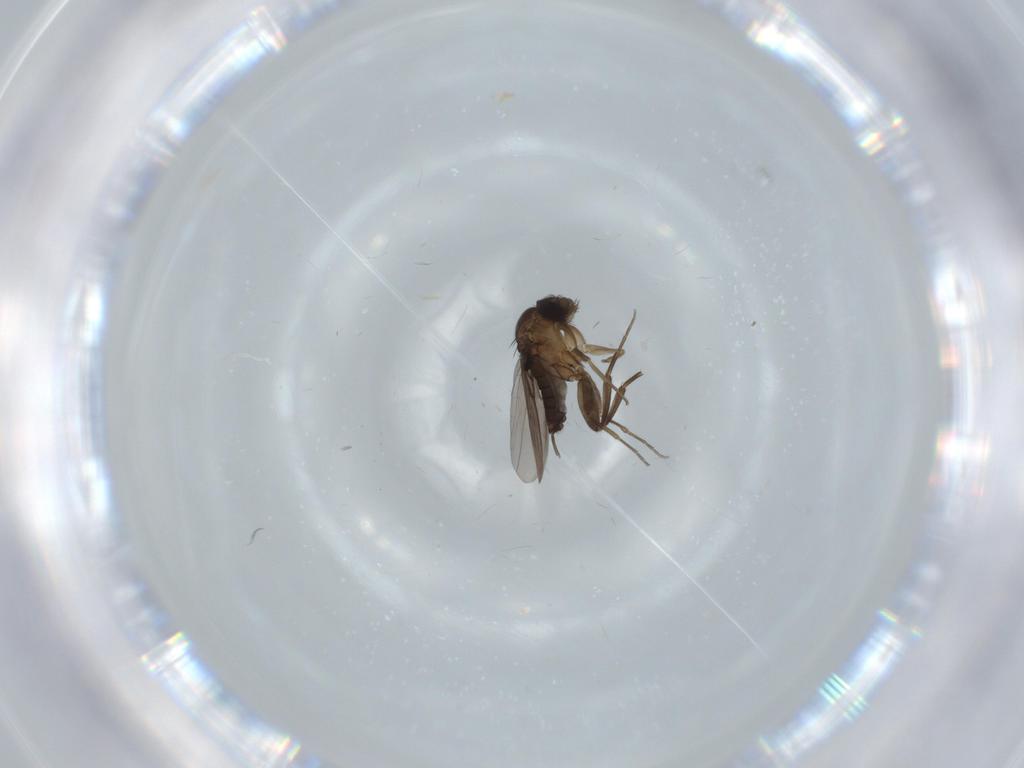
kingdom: Animalia
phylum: Arthropoda
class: Insecta
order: Diptera
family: Phoridae
